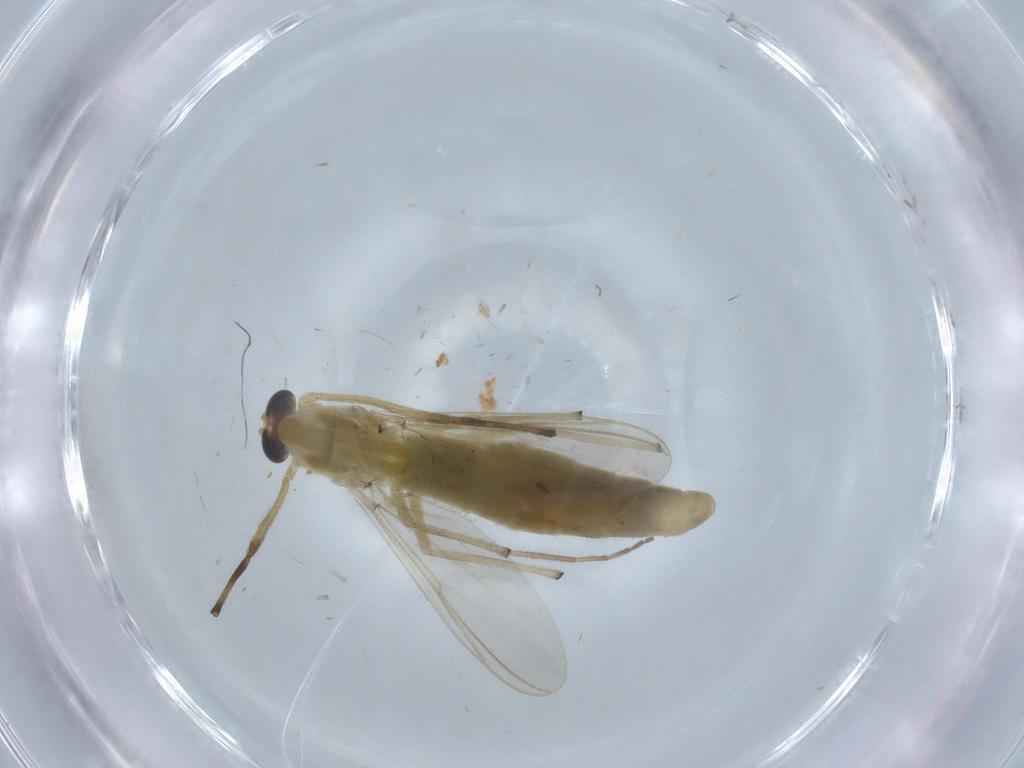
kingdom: Animalia
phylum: Arthropoda
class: Insecta
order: Diptera
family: Chironomidae
